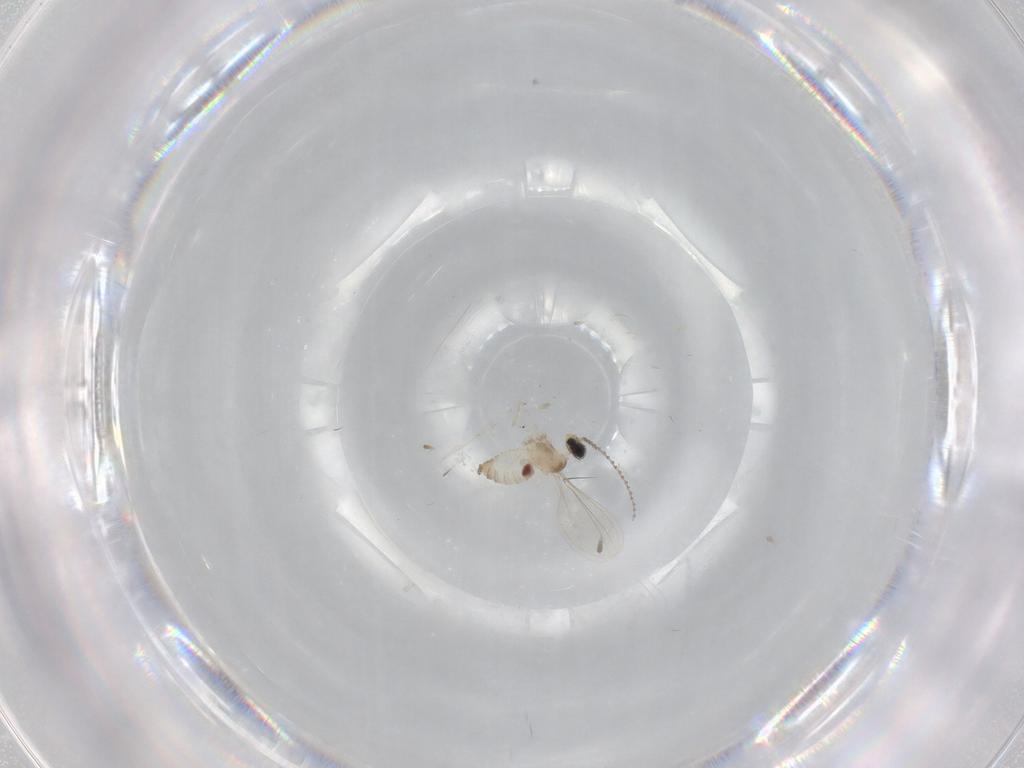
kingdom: Animalia
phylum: Arthropoda
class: Insecta
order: Diptera
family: Cecidomyiidae
